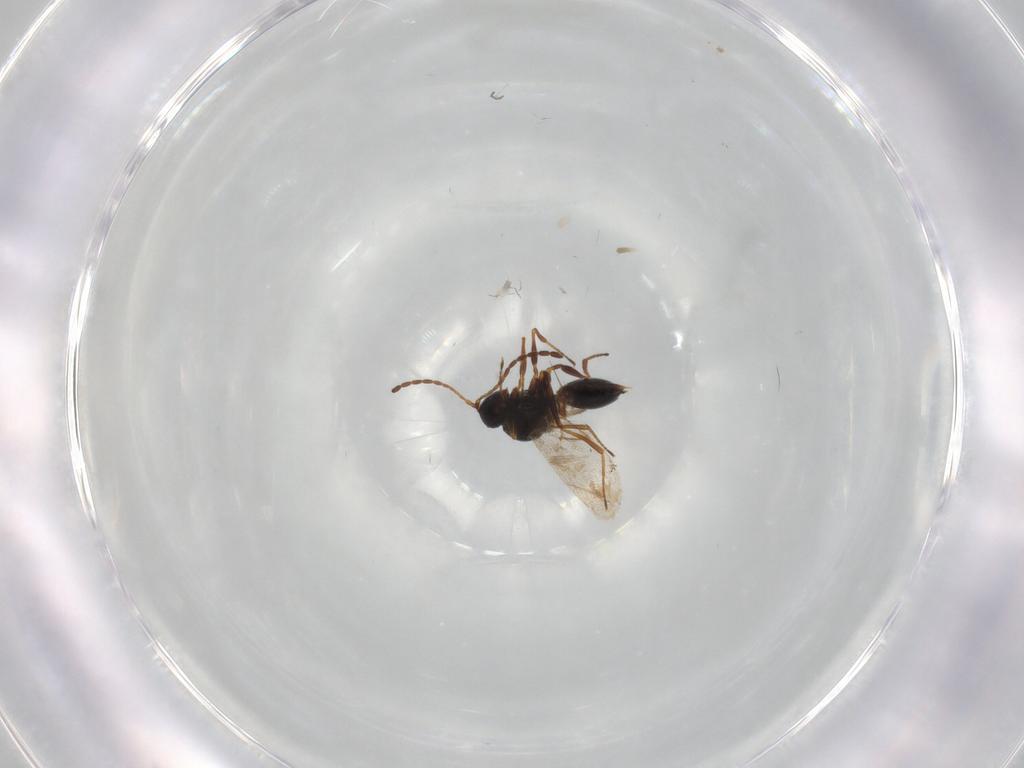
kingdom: Animalia
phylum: Arthropoda
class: Insecta
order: Hymenoptera
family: Figitidae
